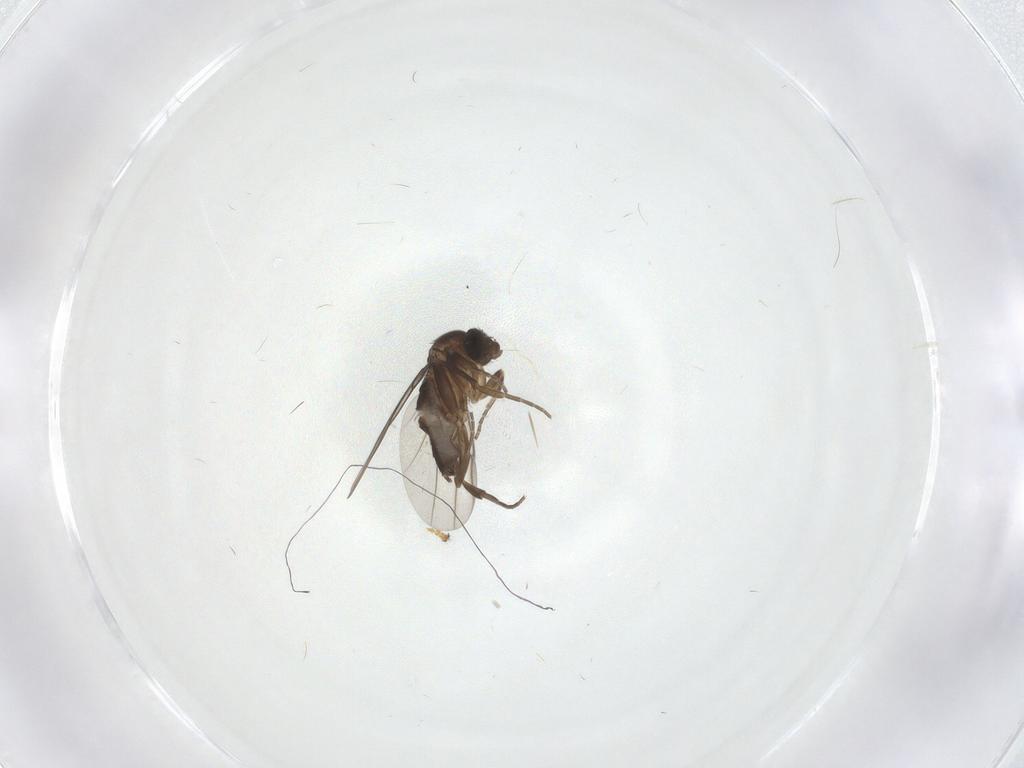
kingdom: Animalia
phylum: Arthropoda
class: Insecta
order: Diptera
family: Periscelididae
